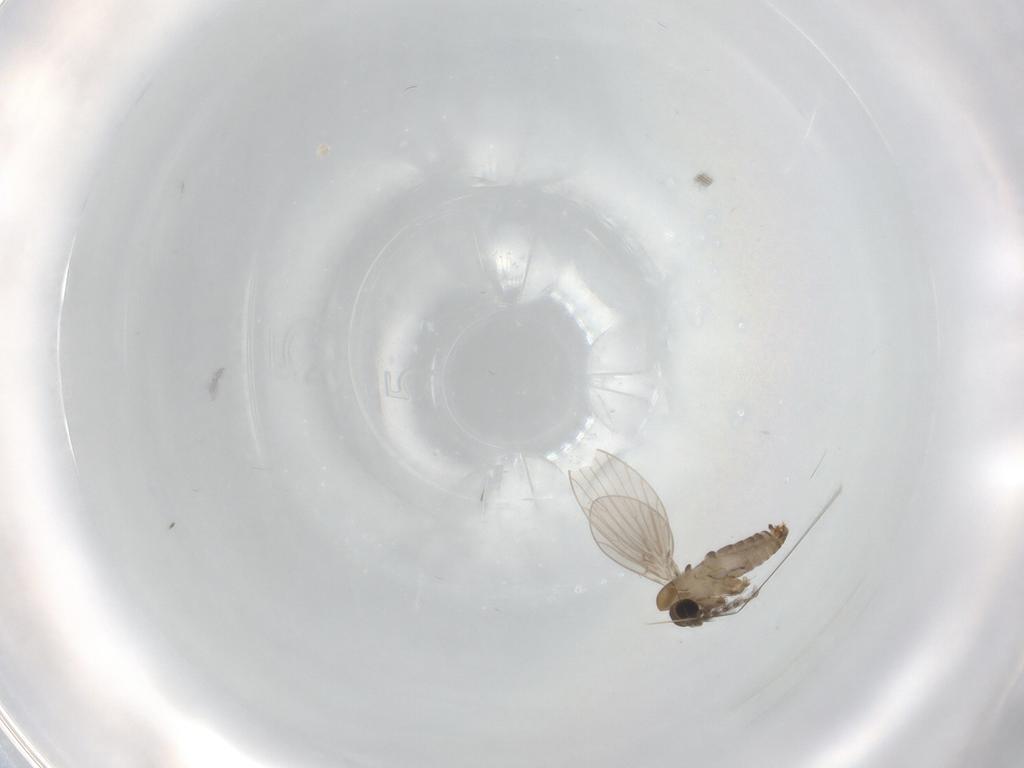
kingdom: Animalia
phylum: Arthropoda
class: Insecta
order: Diptera
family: Psychodidae
